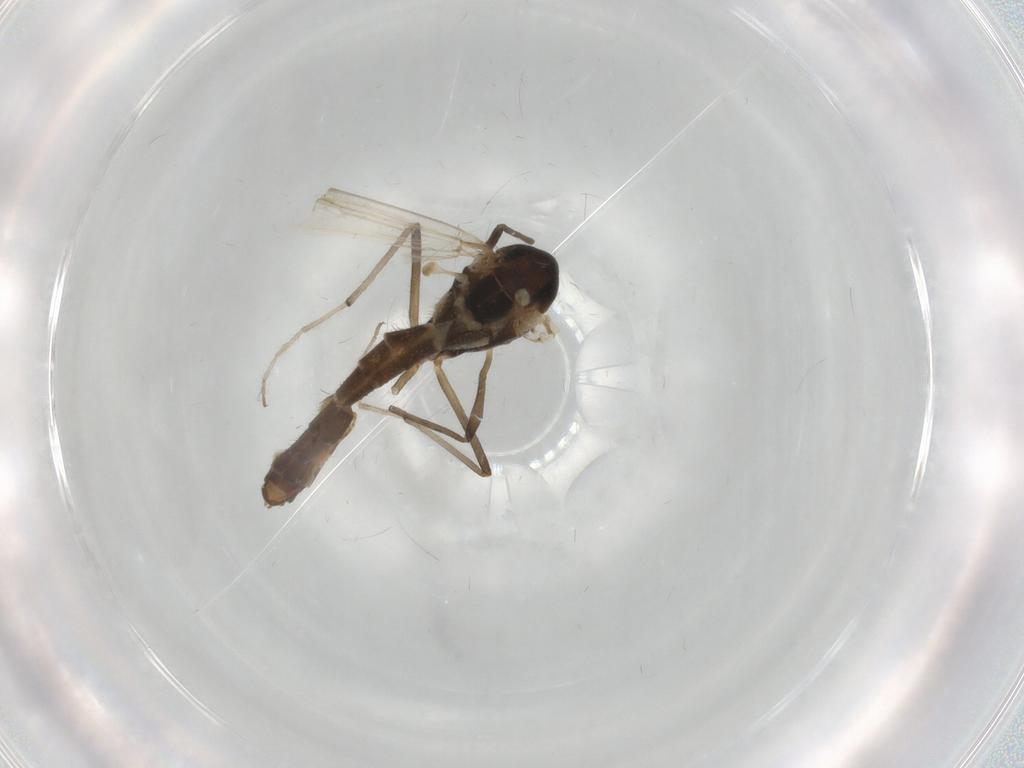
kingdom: Animalia
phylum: Arthropoda
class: Insecta
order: Diptera
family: Chironomidae
